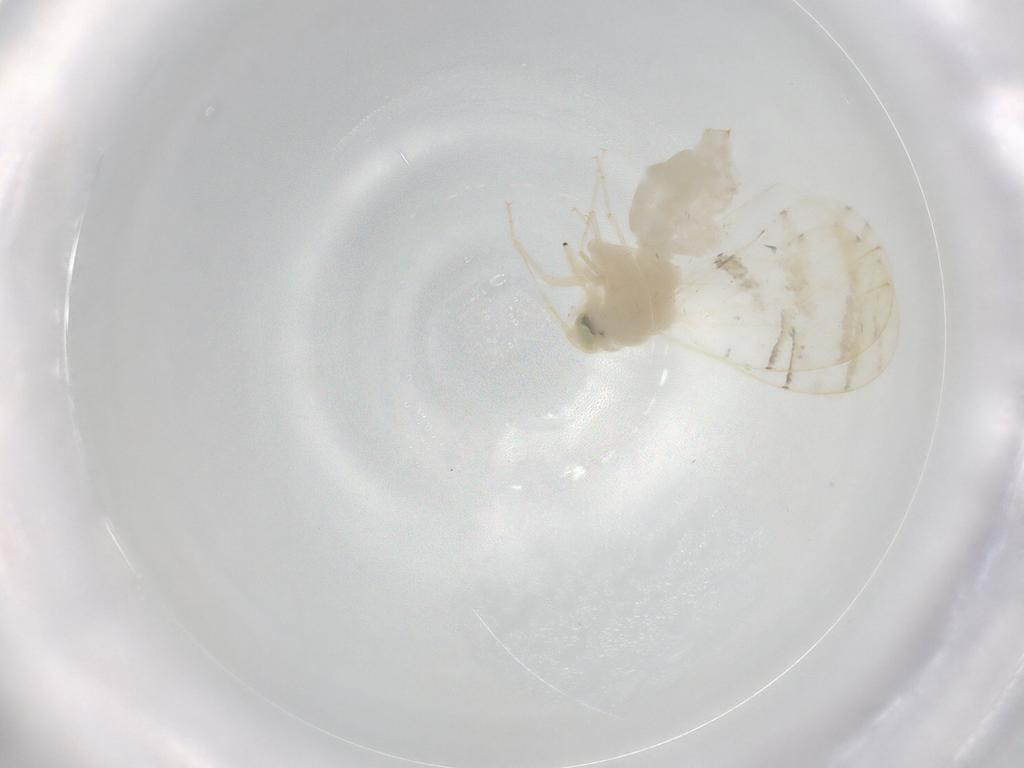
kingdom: Animalia
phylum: Arthropoda
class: Insecta
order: Hemiptera
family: Aleyrodidae
